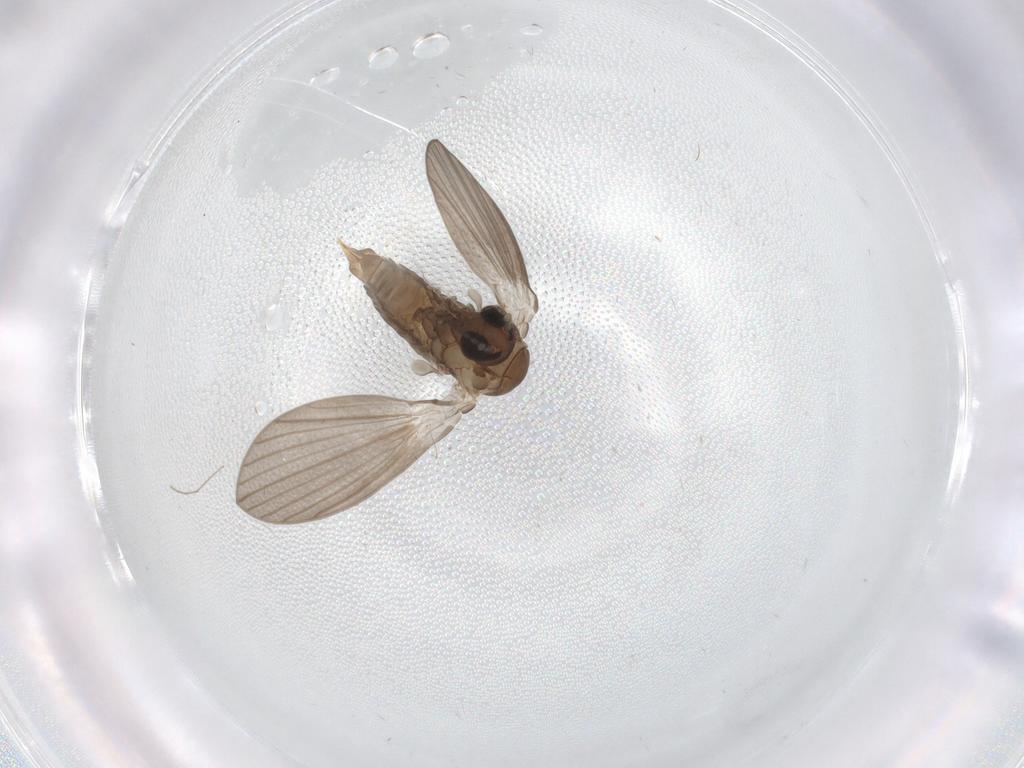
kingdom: Animalia
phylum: Arthropoda
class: Insecta
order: Diptera
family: Psychodidae
